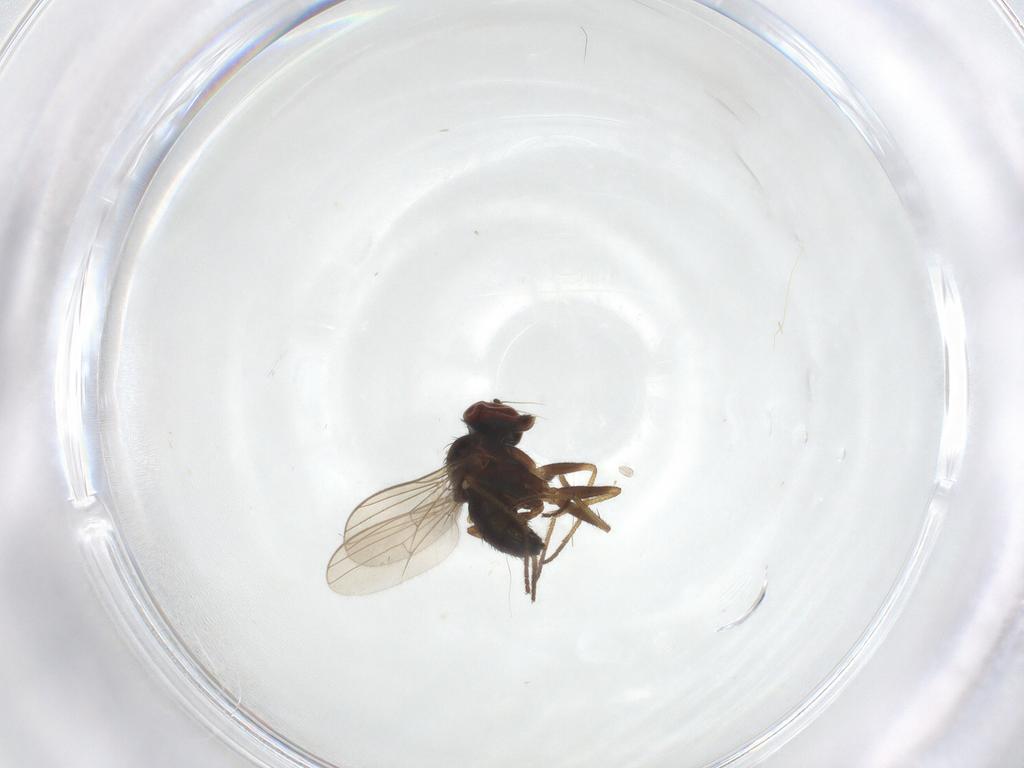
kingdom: Animalia
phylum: Arthropoda
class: Insecta
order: Diptera
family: Dolichopodidae
